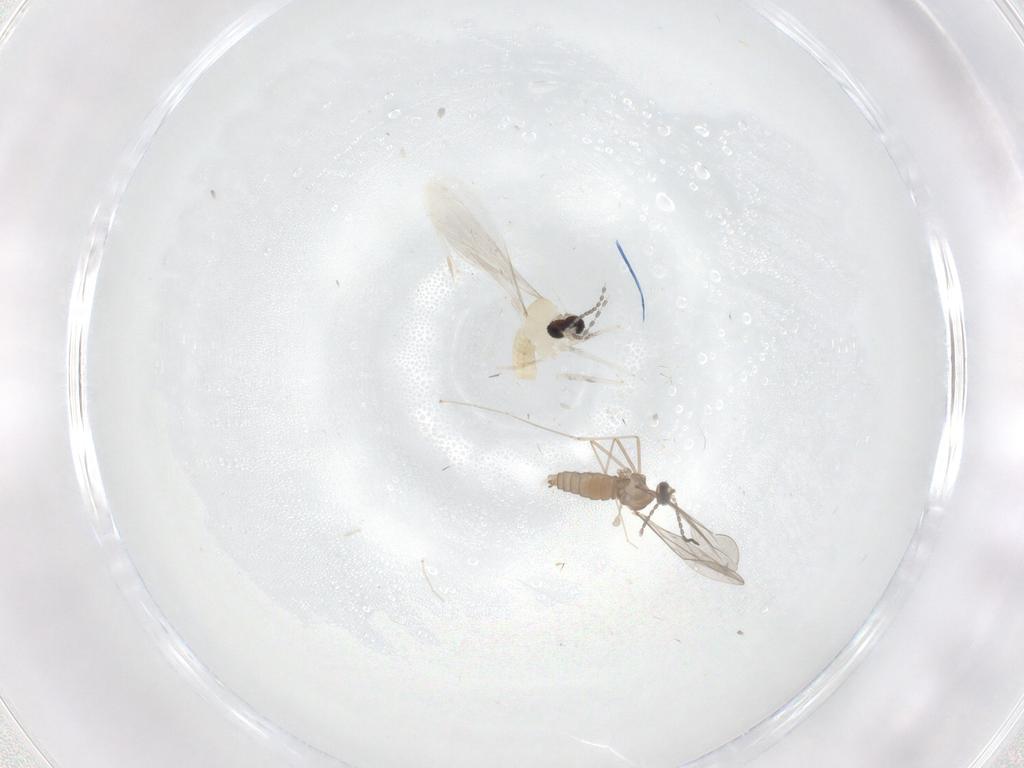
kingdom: Animalia
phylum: Arthropoda
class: Insecta
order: Diptera
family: Cecidomyiidae
